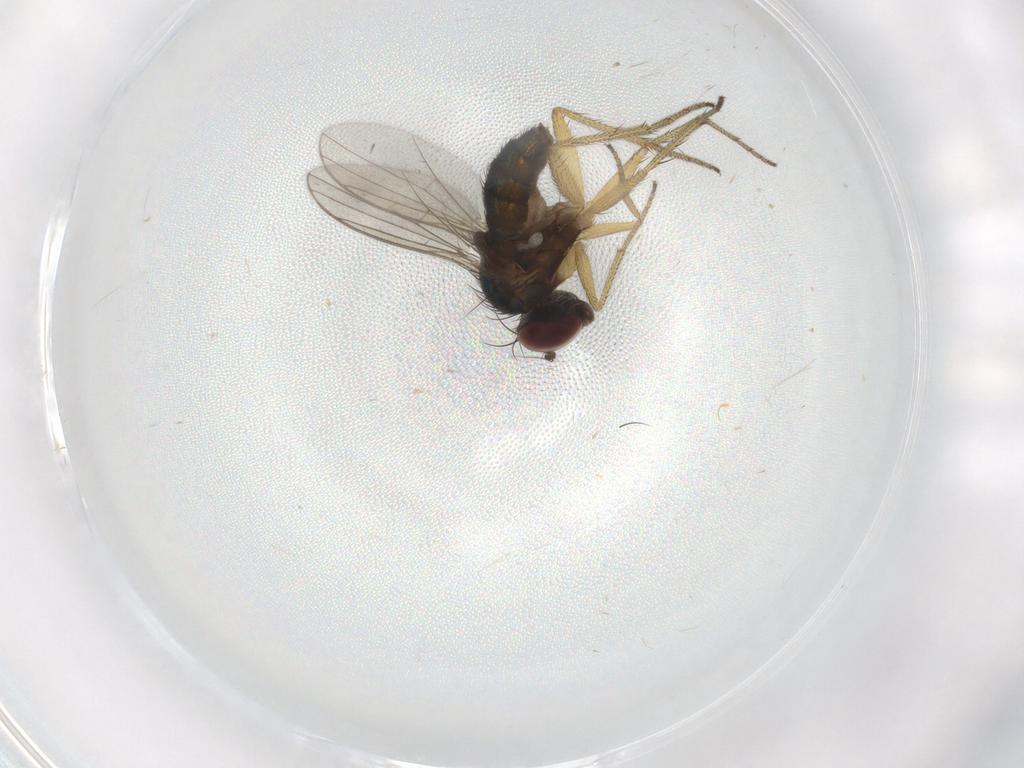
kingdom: Animalia
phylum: Arthropoda
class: Insecta
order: Diptera
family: Dolichopodidae
